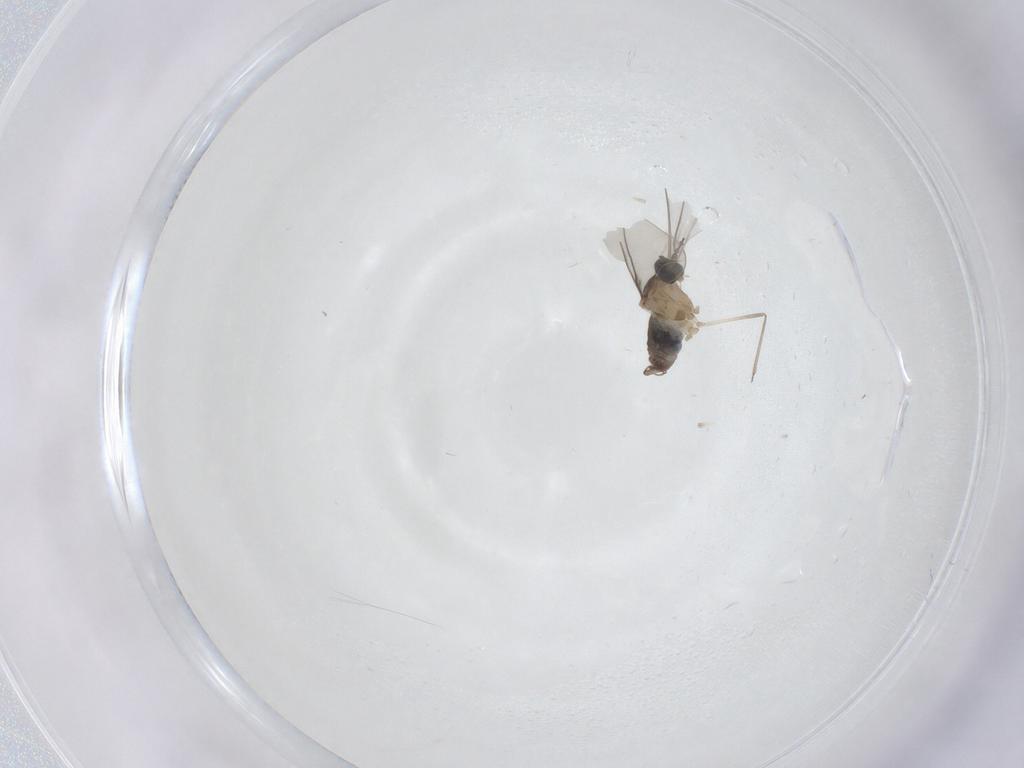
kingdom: Animalia
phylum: Arthropoda
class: Insecta
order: Diptera
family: Cecidomyiidae
